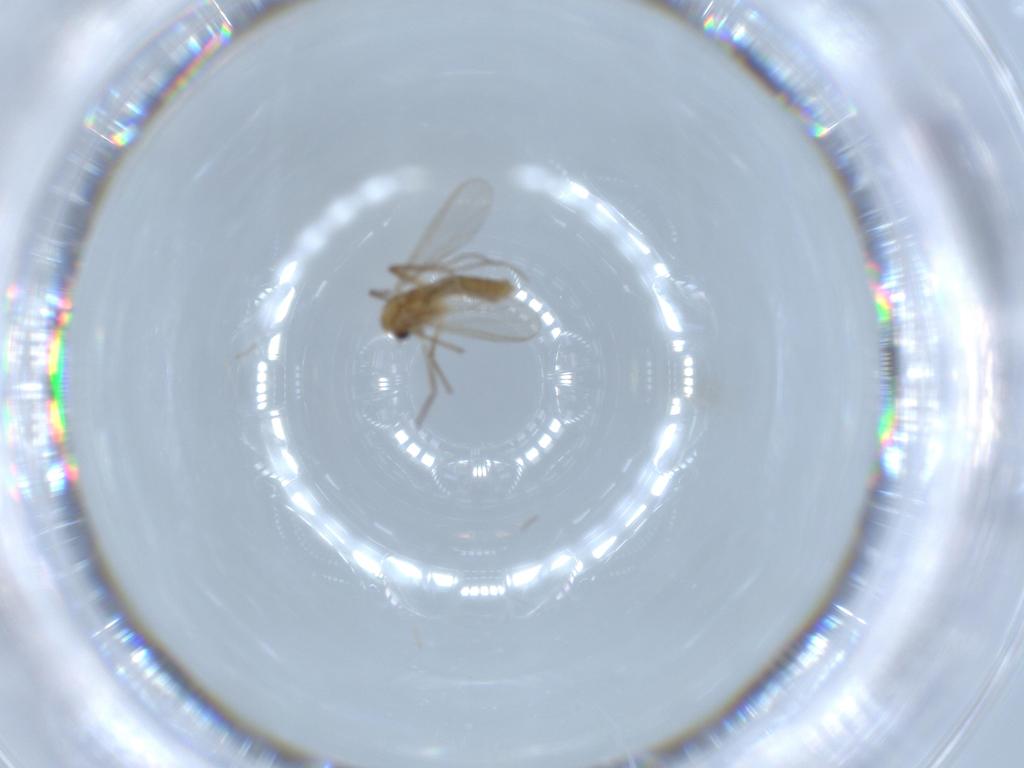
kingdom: Animalia
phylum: Arthropoda
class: Insecta
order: Diptera
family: Chironomidae
